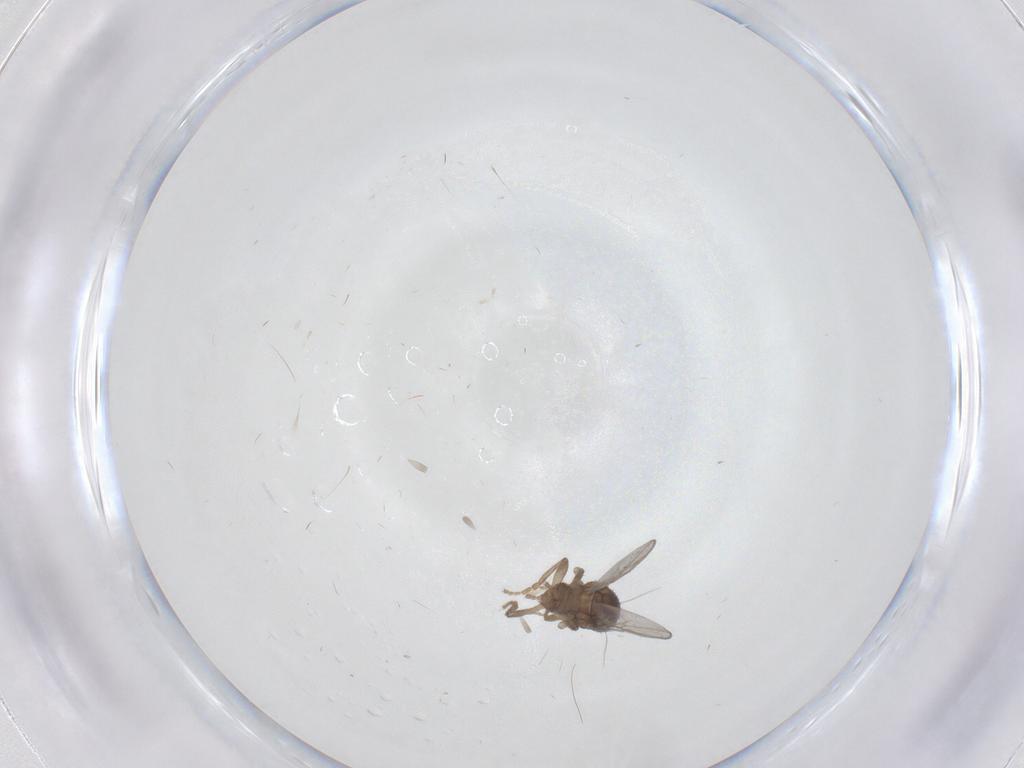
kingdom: Animalia
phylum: Arthropoda
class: Insecta
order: Diptera
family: Sphaeroceridae
